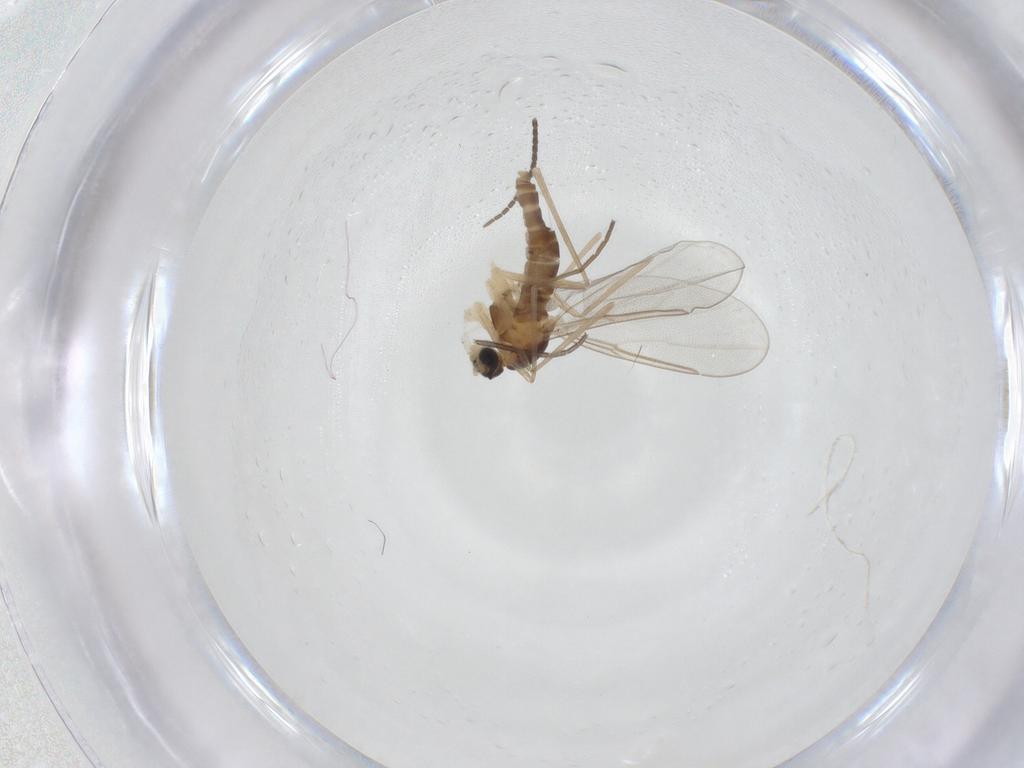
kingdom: Animalia
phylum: Arthropoda
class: Insecta
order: Diptera
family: Cecidomyiidae
